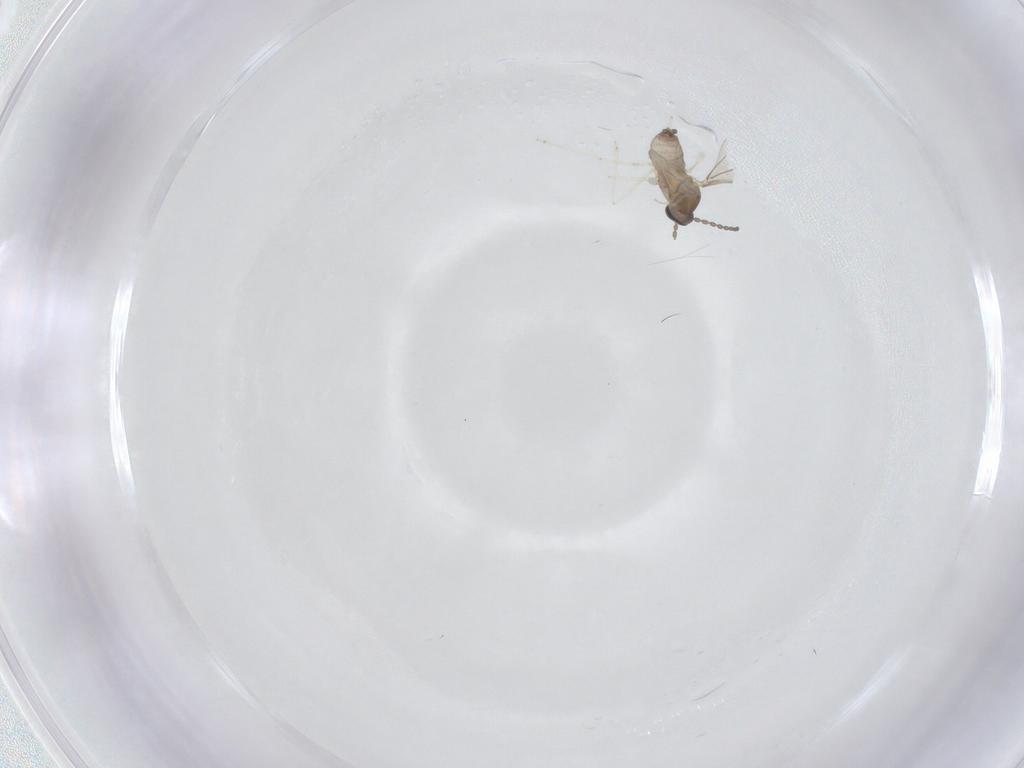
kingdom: Animalia
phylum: Arthropoda
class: Insecta
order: Diptera
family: Cecidomyiidae
